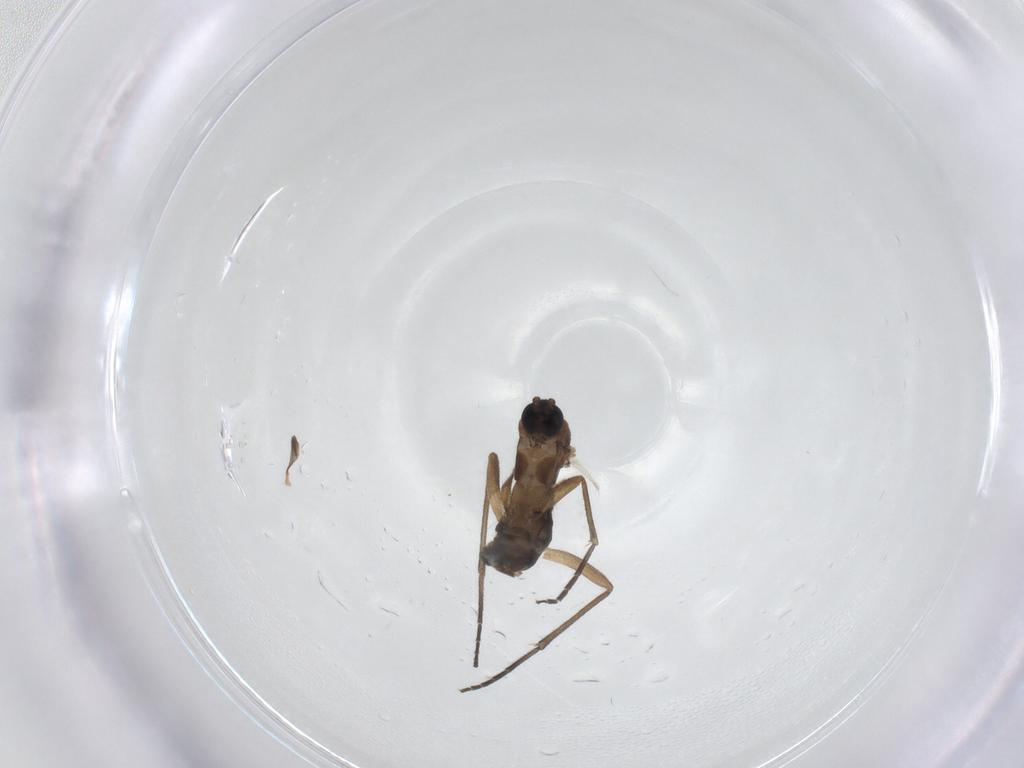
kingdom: Animalia
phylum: Arthropoda
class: Insecta
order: Diptera
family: Sciaridae
